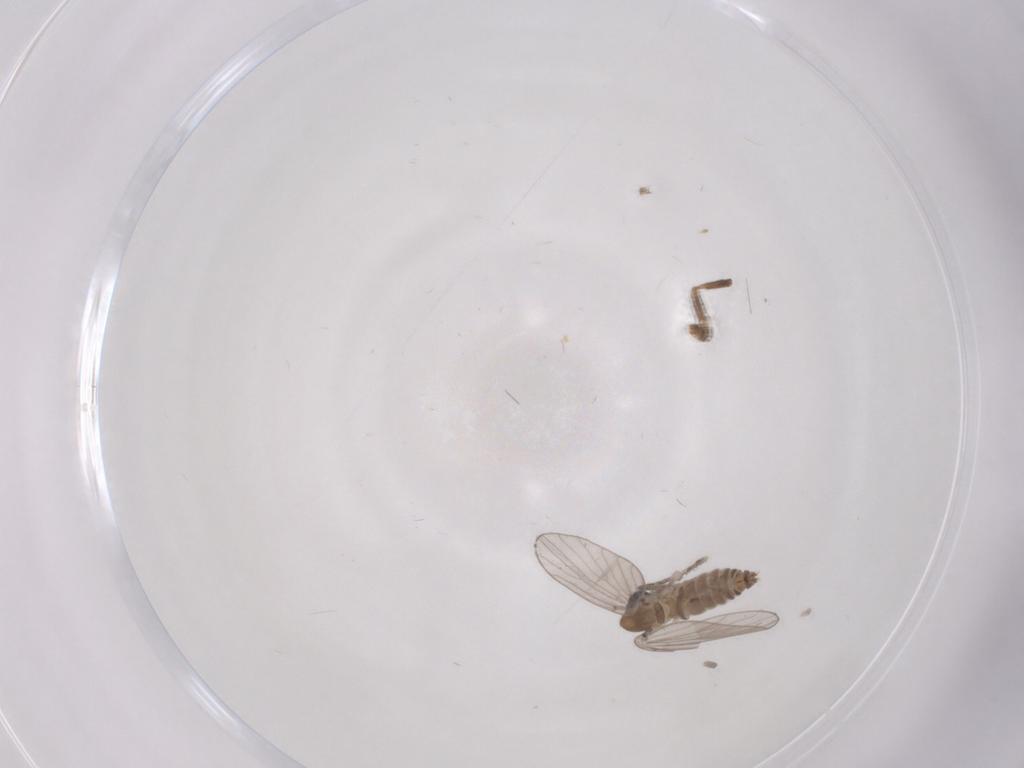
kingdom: Animalia
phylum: Arthropoda
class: Insecta
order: Diptera
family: Psychodidae
